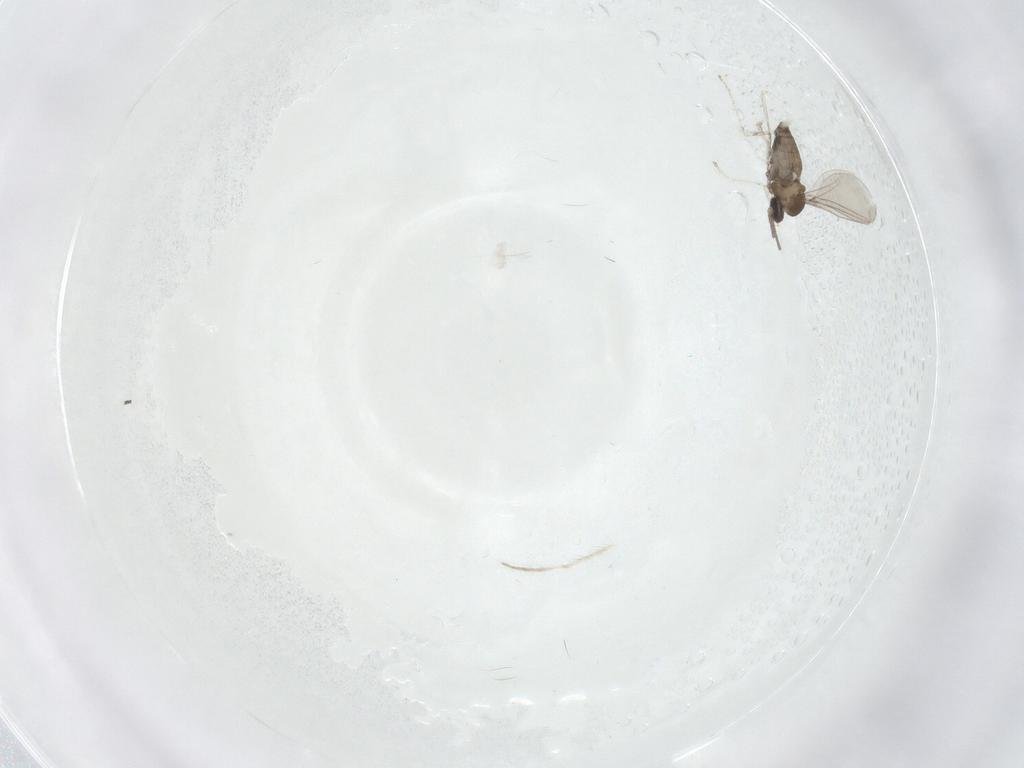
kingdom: Animalia
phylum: Arthropoda
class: Insecta
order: Diptera
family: Chironomidae
